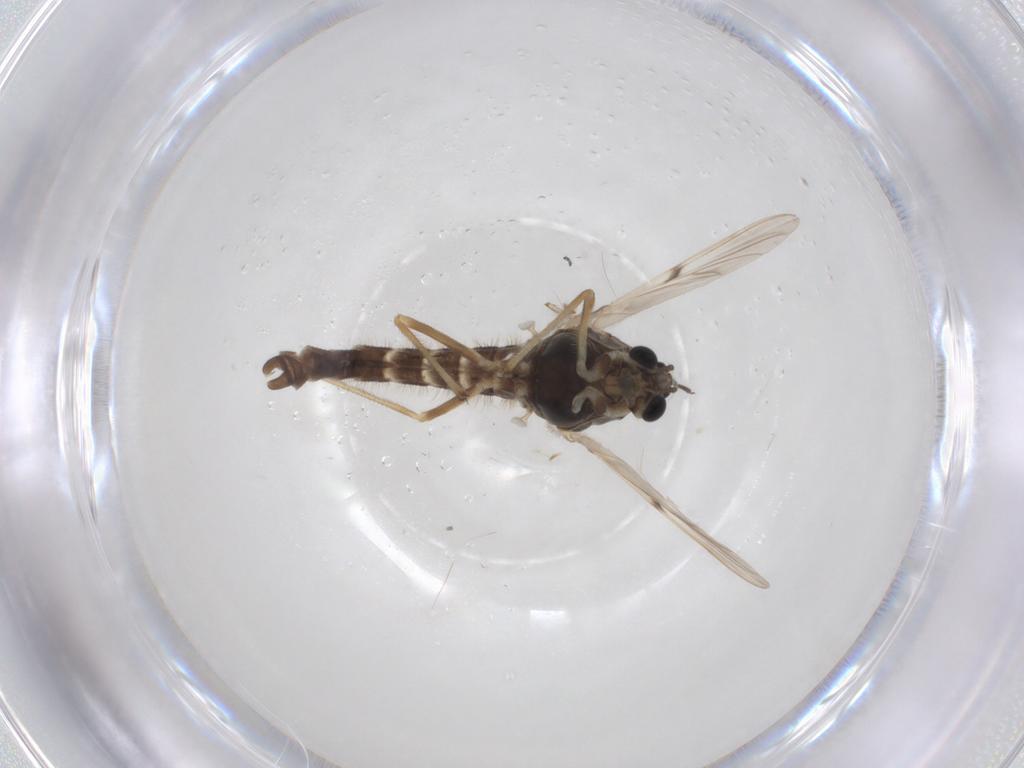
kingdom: Animalia
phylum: Arthropoda
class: Insecta
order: Diptera
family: Chironomidae
